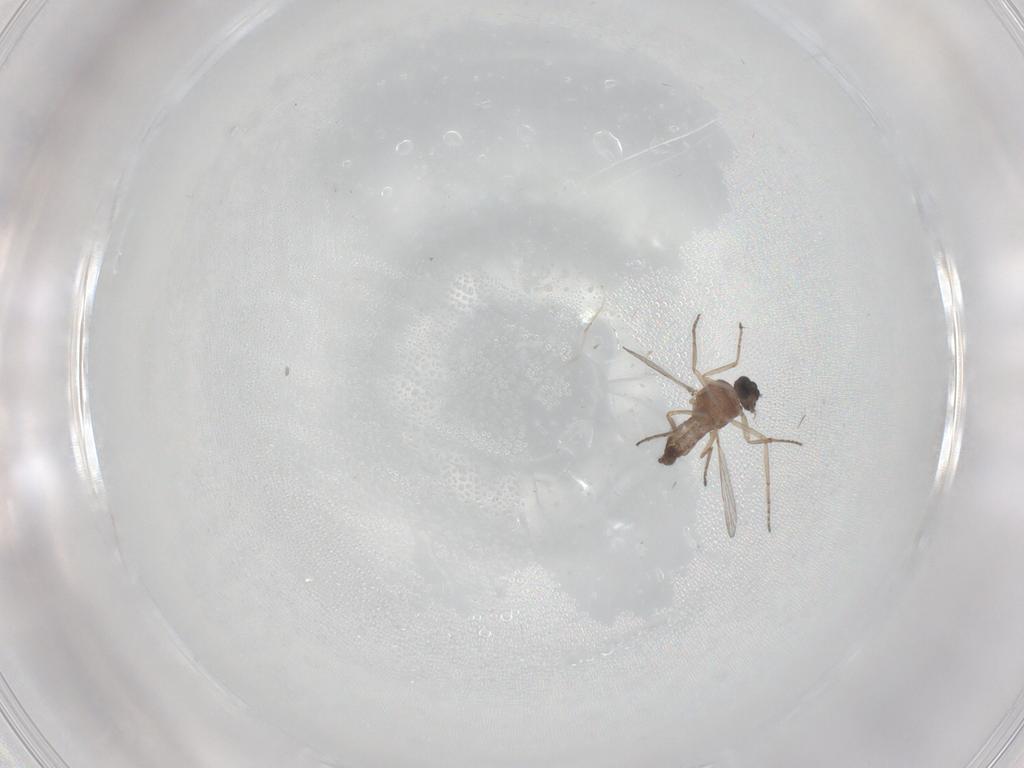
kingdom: Animalia
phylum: Arthropoda
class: Insecta
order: Diptera
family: Ceratopogonidae
